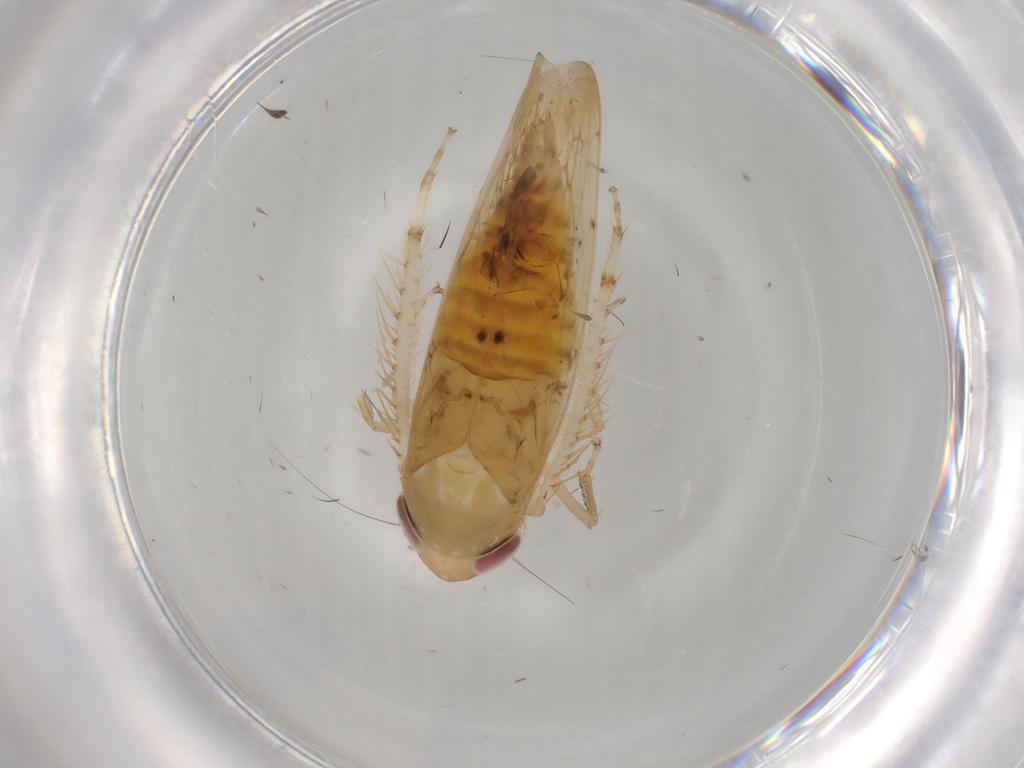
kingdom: Animalia
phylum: Arthropoda
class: Insecta
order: Hemiptera
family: Cicadellidae
